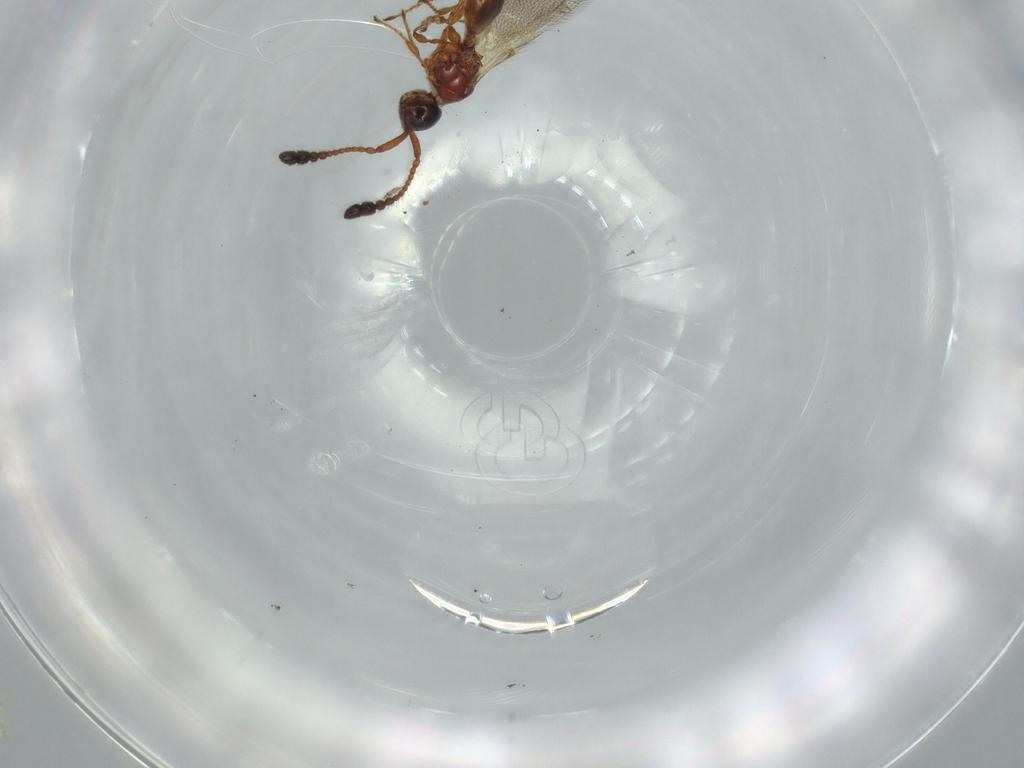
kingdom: Animalia
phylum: Arthropoda
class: Insecta
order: Hymenoptera
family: Diapriidae
